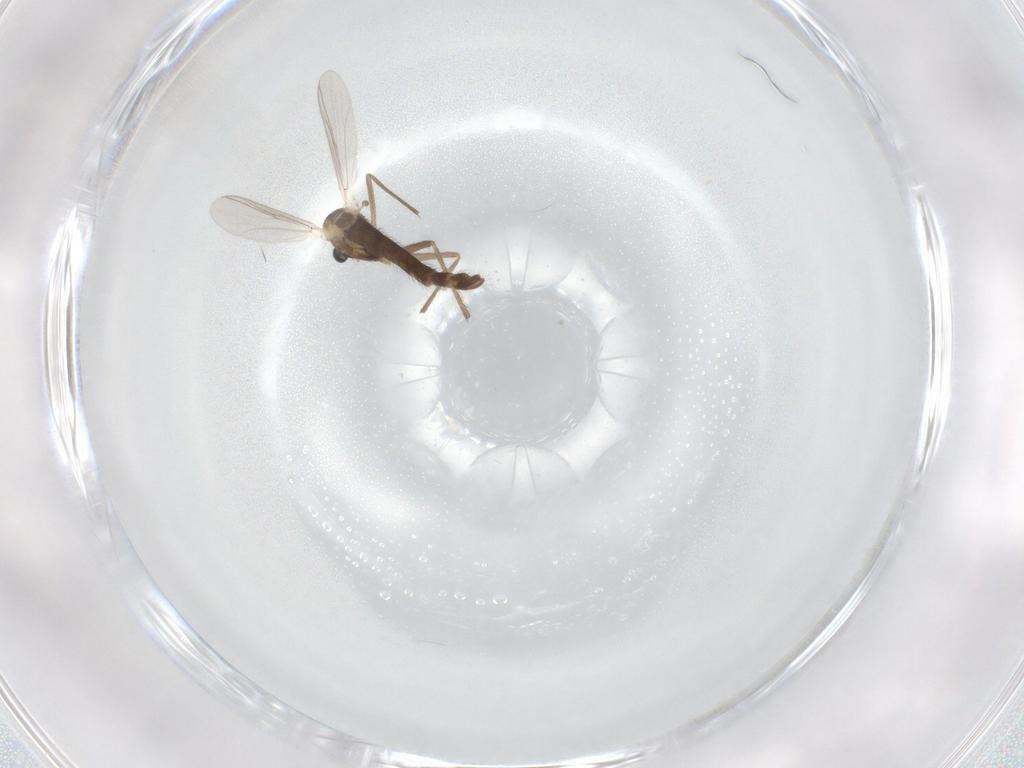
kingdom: Animalia
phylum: Arthropoda
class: Insecta
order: Diptera
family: Chironomidae
